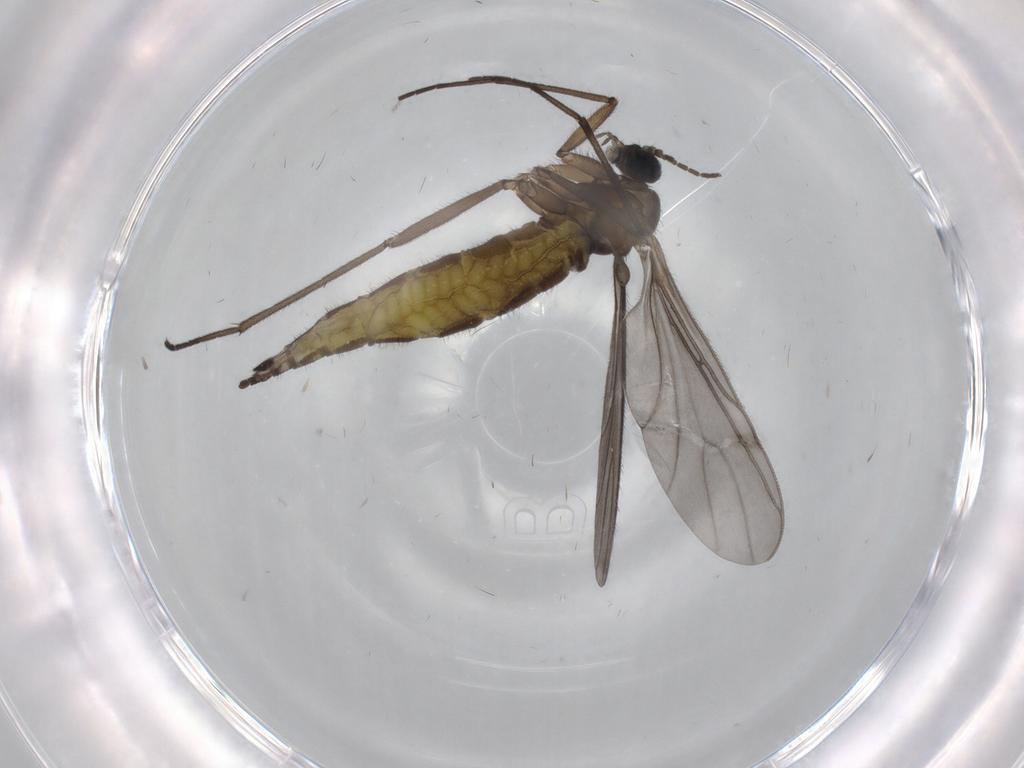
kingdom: Animalia
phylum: Arthropoda
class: Insecta
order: Diptera
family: Sciaridae
